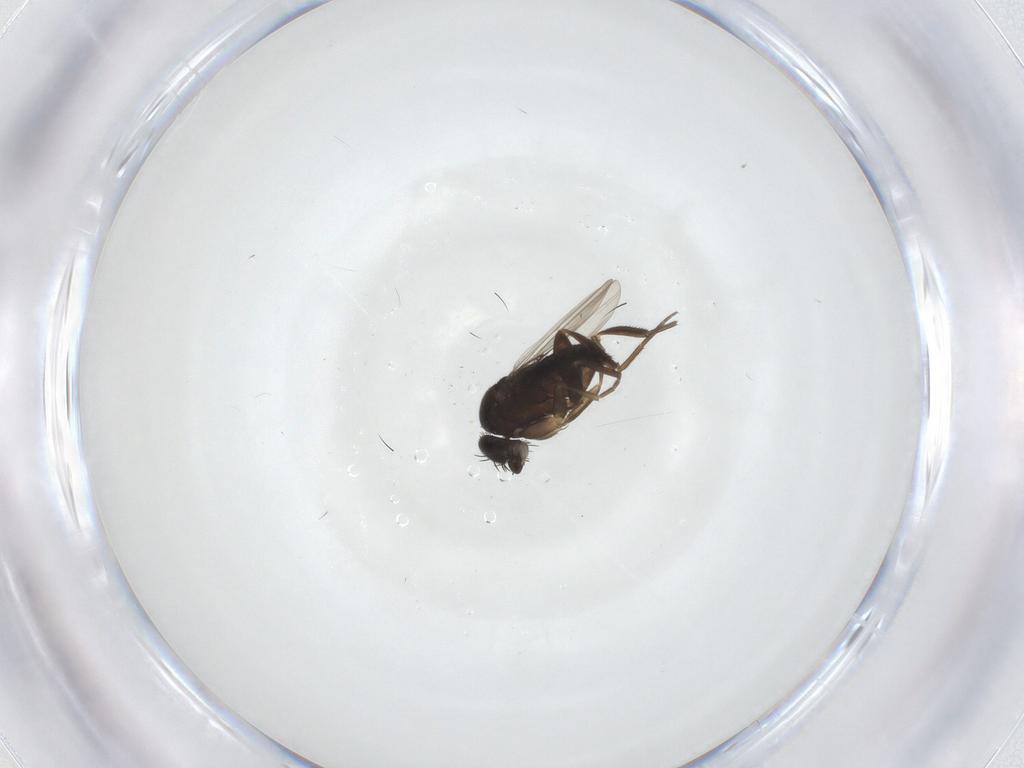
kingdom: Animalia
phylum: Arthropoda
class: Insecta
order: Diptera
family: Muscidae
